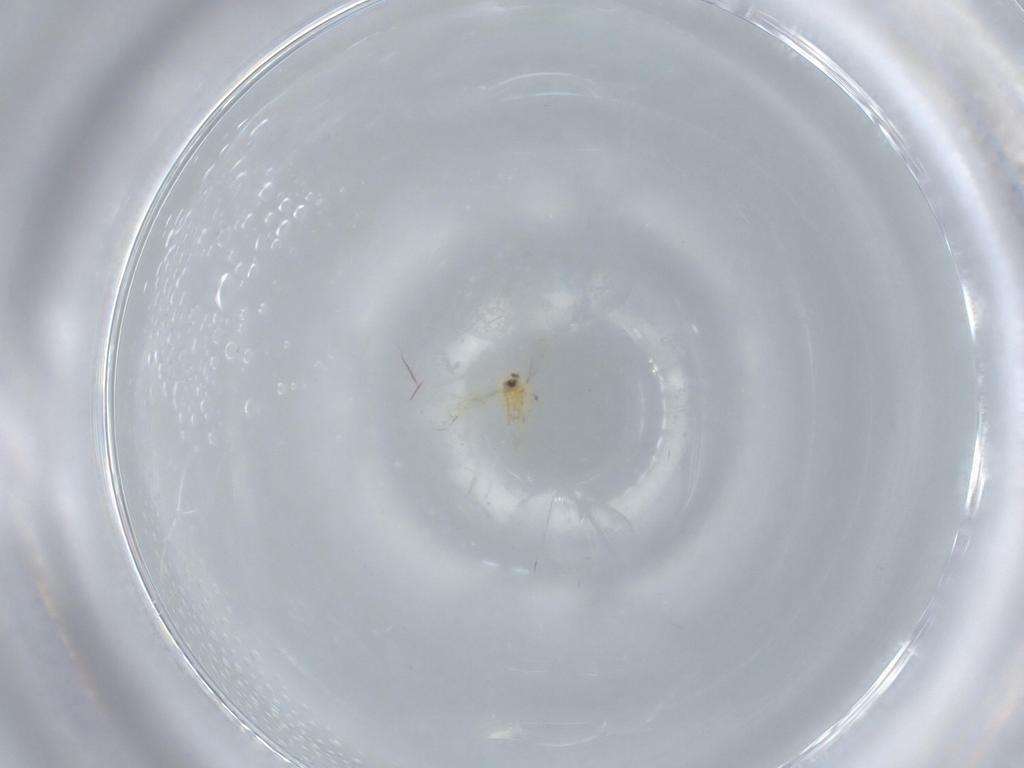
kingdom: Animalia
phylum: Arthropoda
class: Insecta
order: Hymenoptera
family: Aphelinidae
